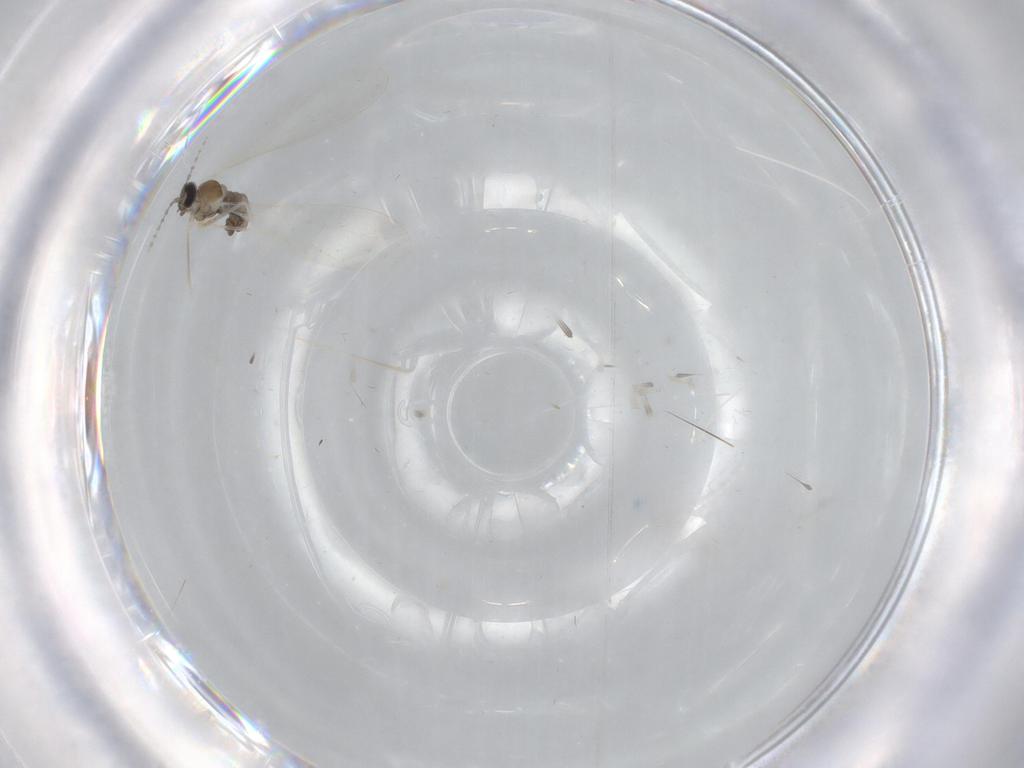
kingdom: Animalia
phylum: Arthropoda
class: Insecta
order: Diptera
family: Cecidomyiidae
